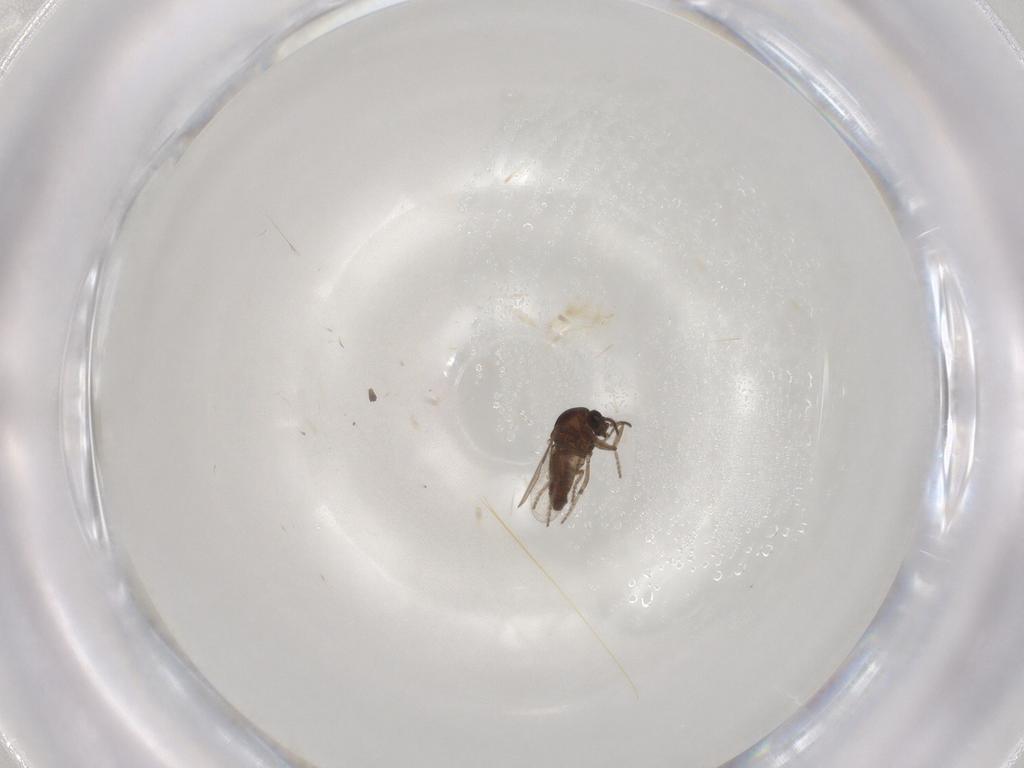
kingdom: Animalia
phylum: Arthropoda
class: Insecta
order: Diptera
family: Ceratopogonidae
